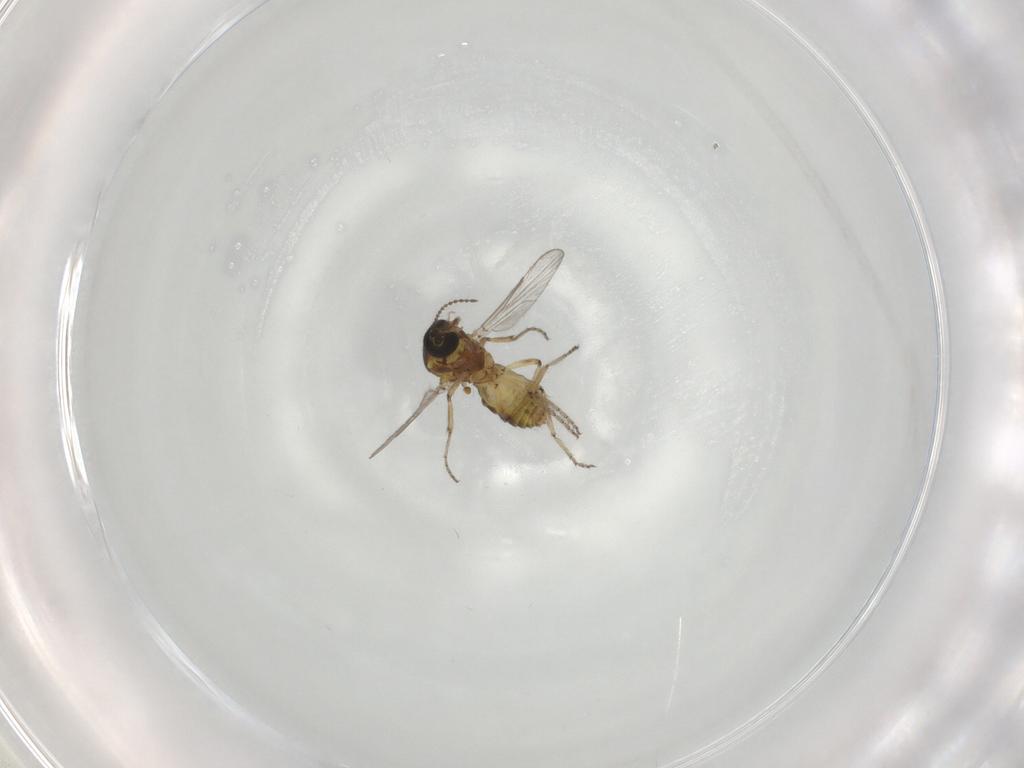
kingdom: Animalia
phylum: Arthropoda
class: Insecta
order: Diptera
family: Ceratopogonidae
